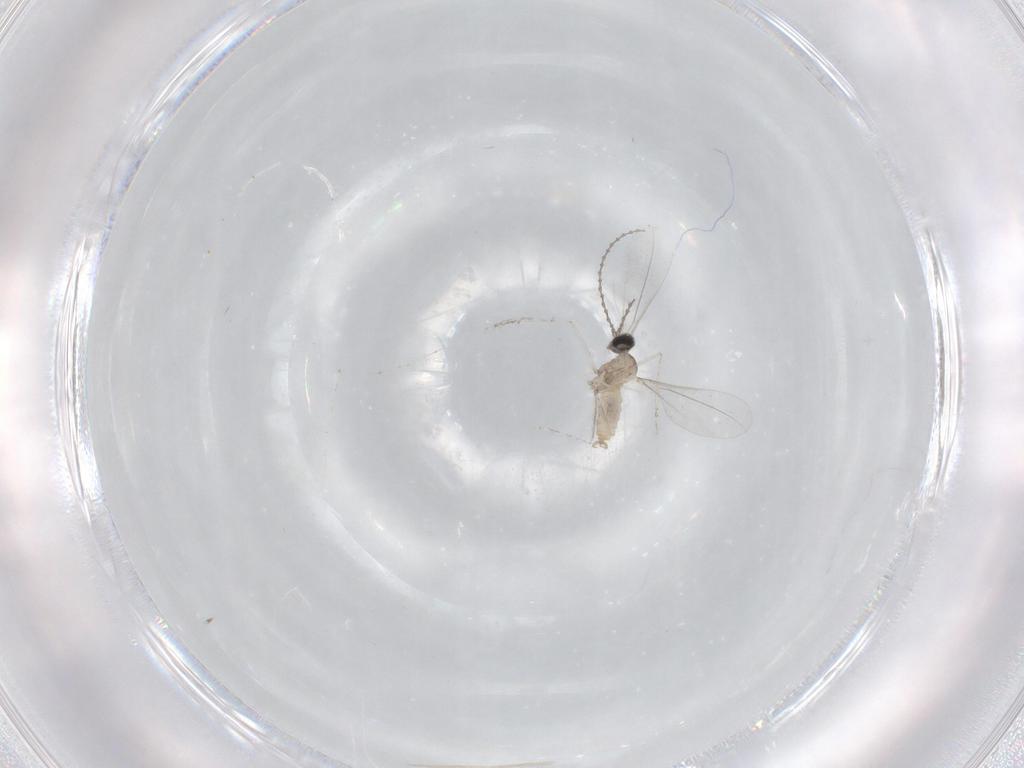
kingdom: Animalia
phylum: Arthropoda
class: Insecta
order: Diptera
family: Cecidomyiidae
